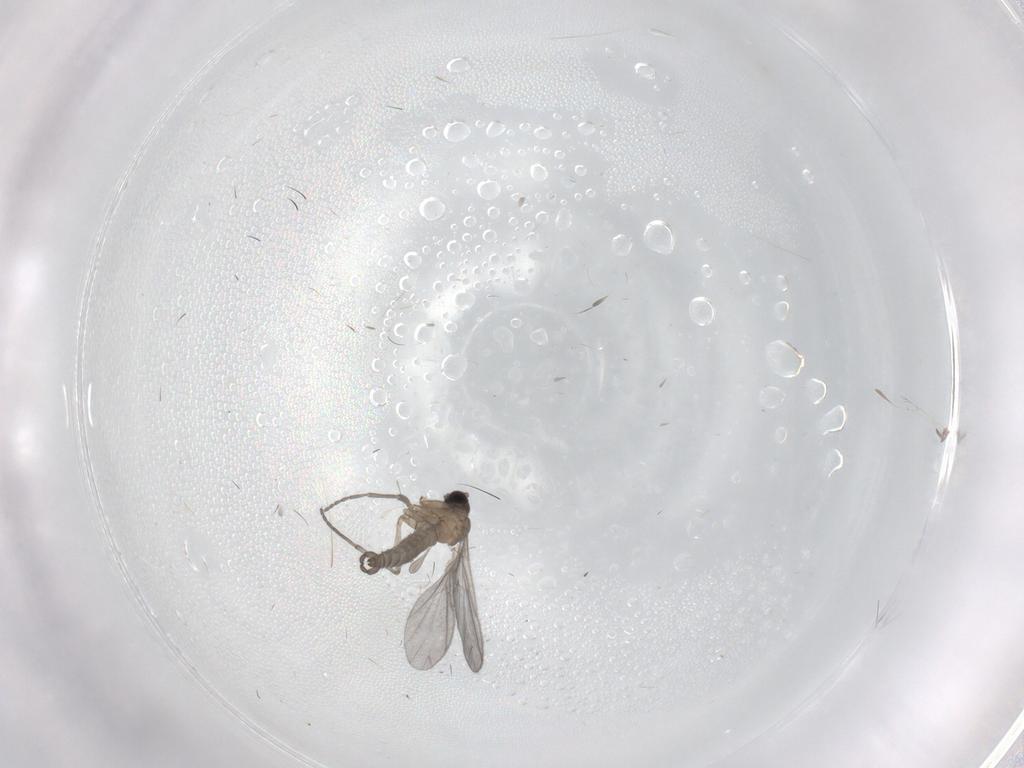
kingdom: Animalia
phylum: Arthropoda
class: Insecta
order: Diptera
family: Sciaridae
